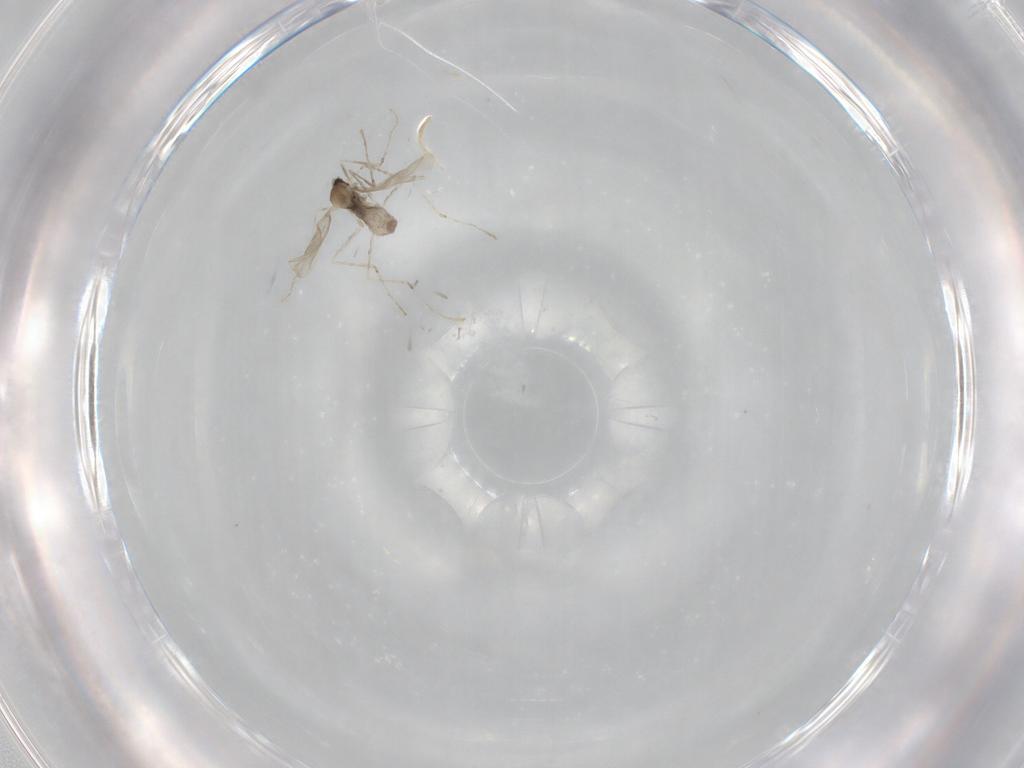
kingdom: Animalia
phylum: Arthropoda
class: Insecta
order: Diptera
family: Cecidomyiidae
